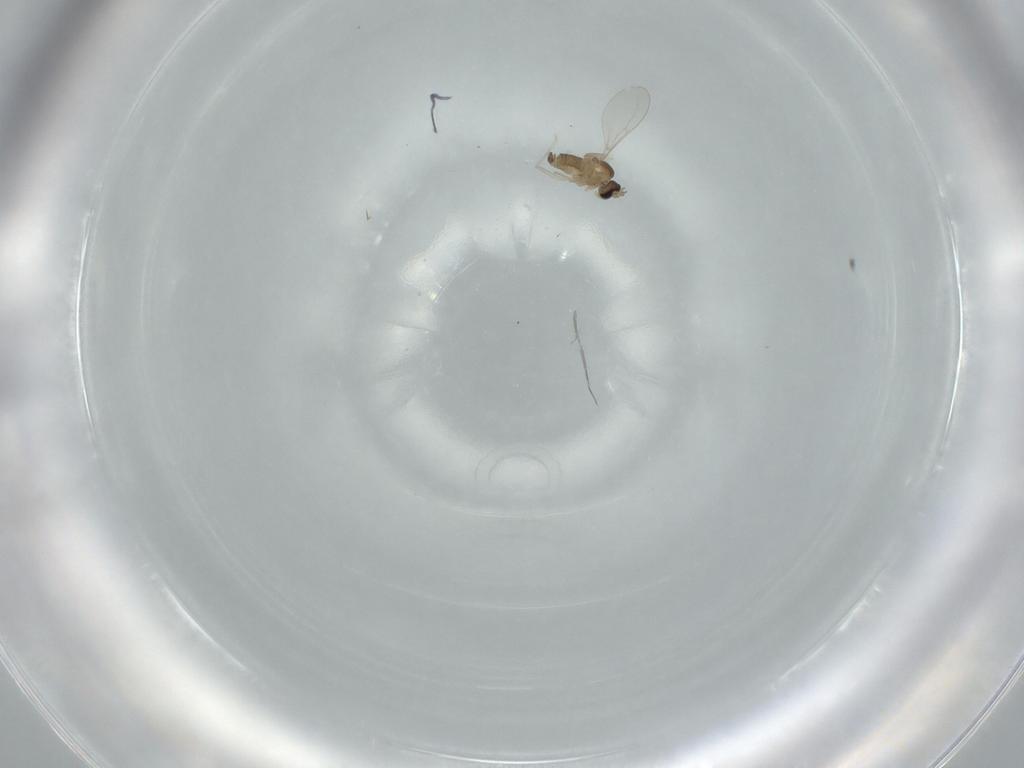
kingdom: Animalia
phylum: Arthropoda
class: Insecta
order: Diptera
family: Cecidomyiidae
